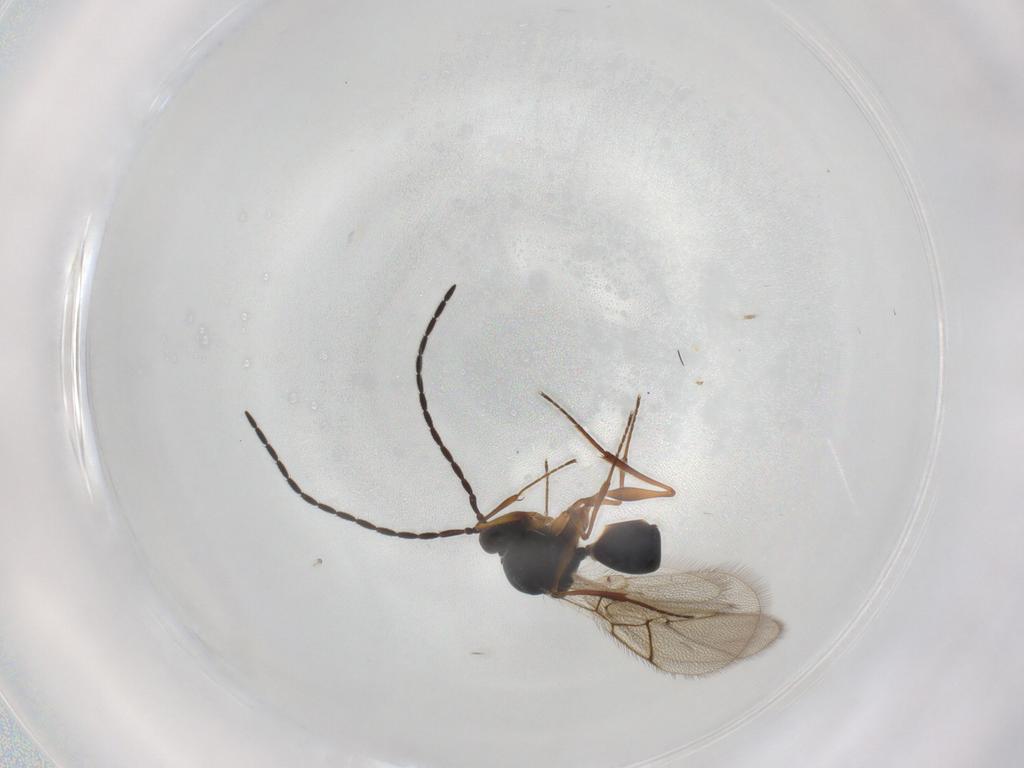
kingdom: Animalia
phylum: Arthropoda
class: Insecta
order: Hymenoptera
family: Figitidae
